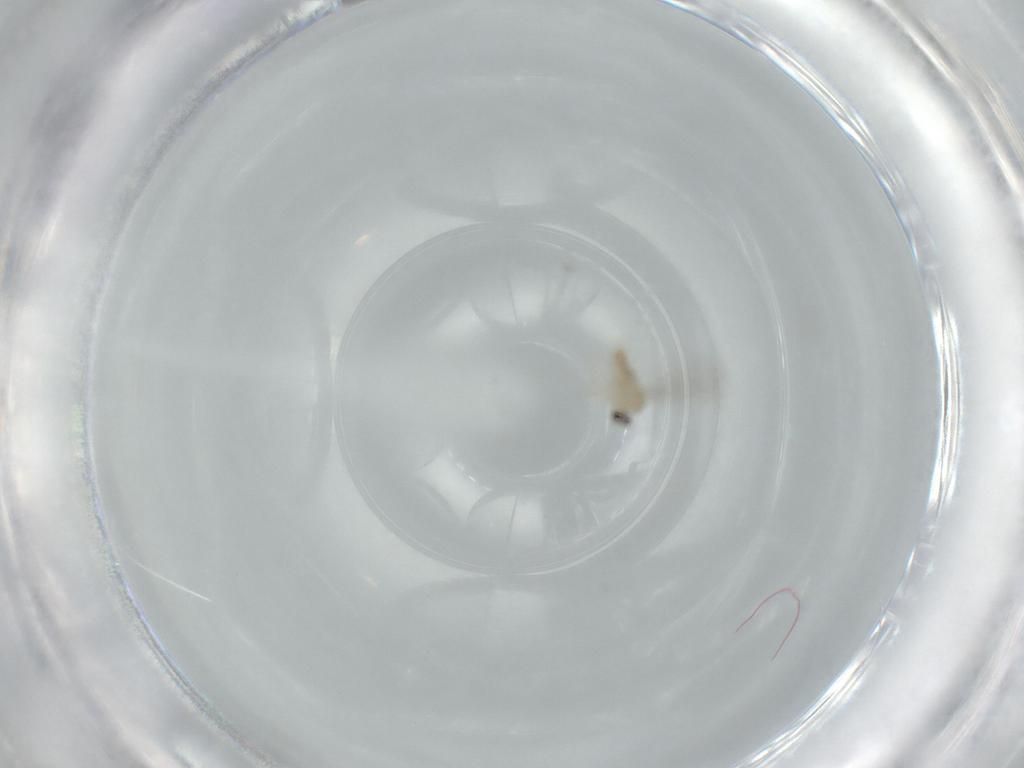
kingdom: Animalia
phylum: Arthropoda
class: Insecta
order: Diptera
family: Cecidomyiidae
